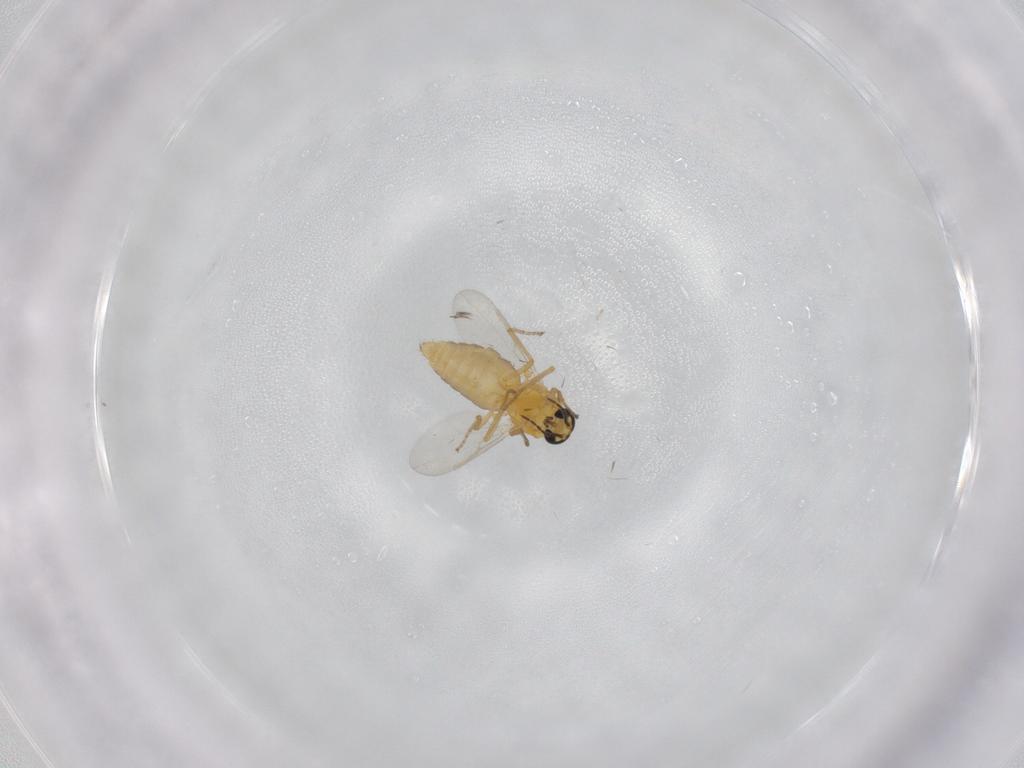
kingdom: Animalia
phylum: Arthropoda
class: Insecta
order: Diptera
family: Ceratopogonidae
